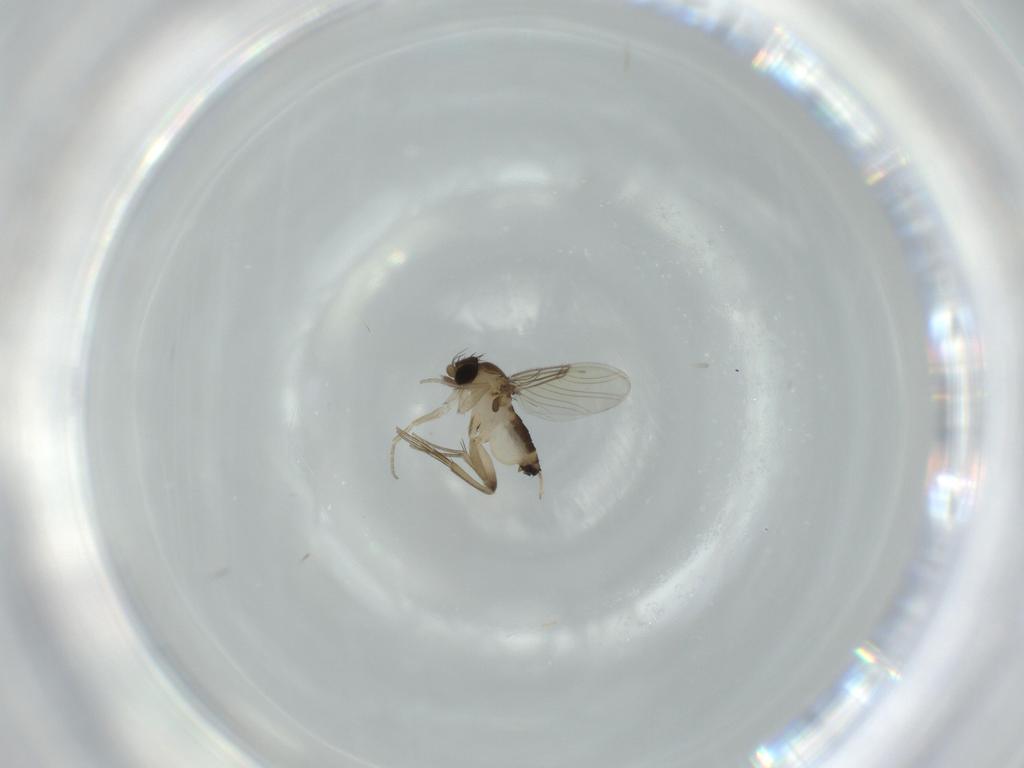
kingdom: Animalia
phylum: Arthropoda
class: Insecta
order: Diptera
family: Phoridae
